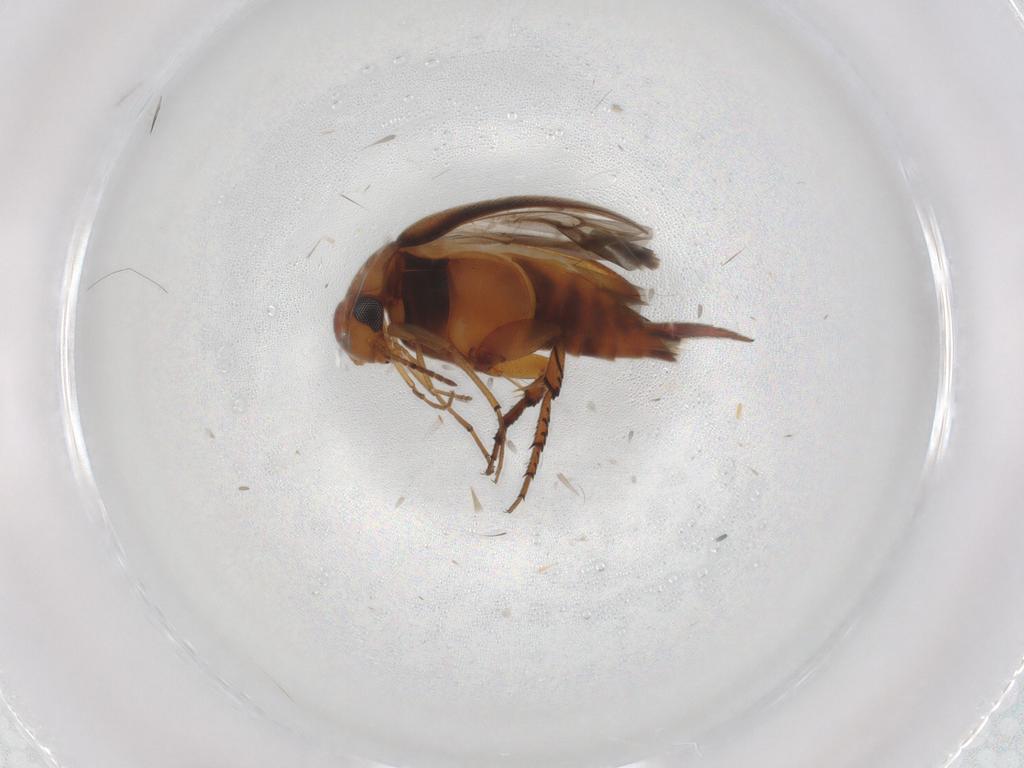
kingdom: Animalia
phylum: Arthropoda
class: Insecta
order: Coleoptera
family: Mordellidae
